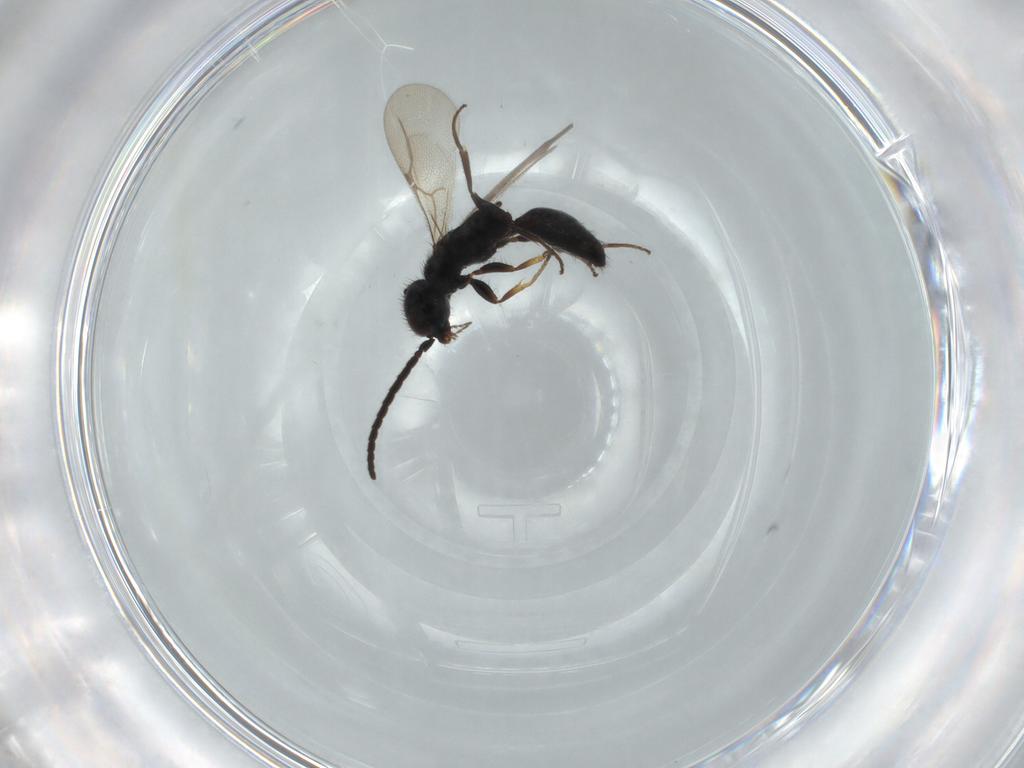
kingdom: Animalia
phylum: Arthropoda
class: Insecta
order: Hymenoptera
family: Bethylidae
